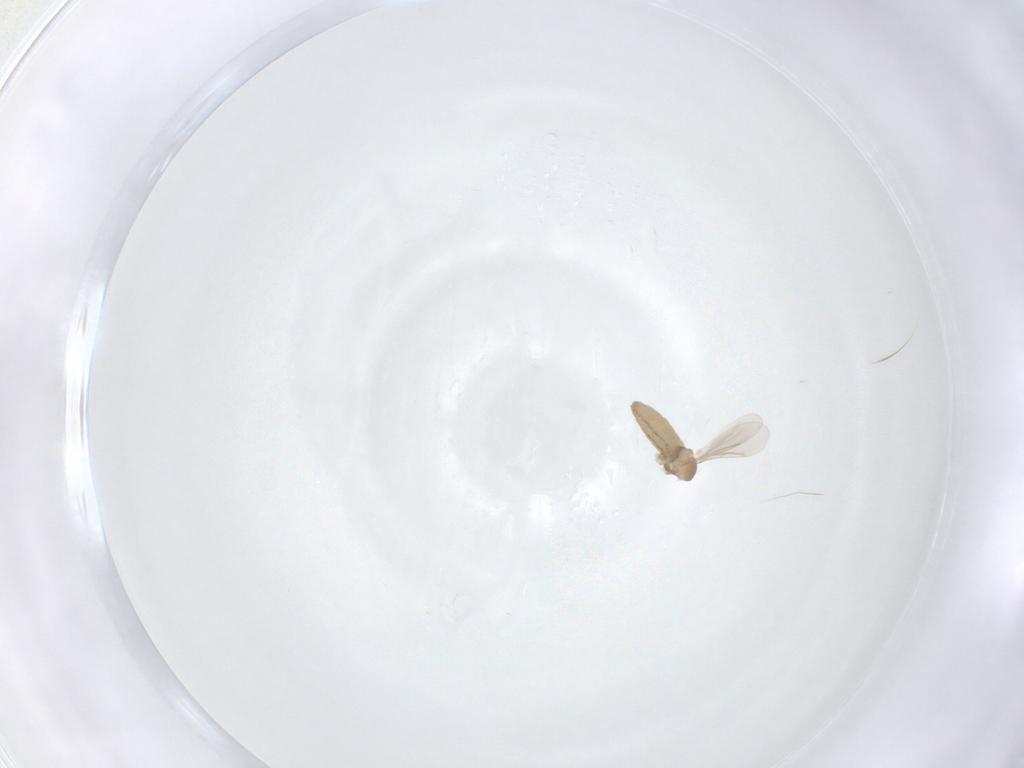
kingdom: Animalia
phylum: Arthropoda
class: Insecta
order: Diptera
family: Cecidomyiidae
